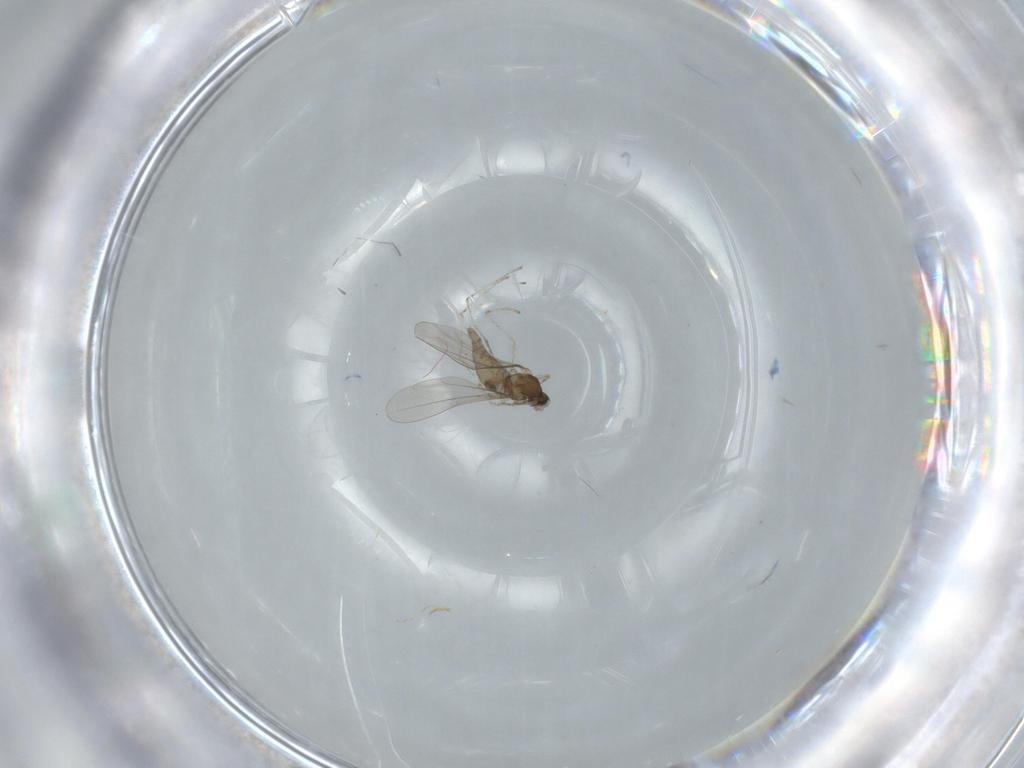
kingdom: Animalia
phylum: Arthropoda
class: Insecta
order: Diptera
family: Cecidomyiidae
